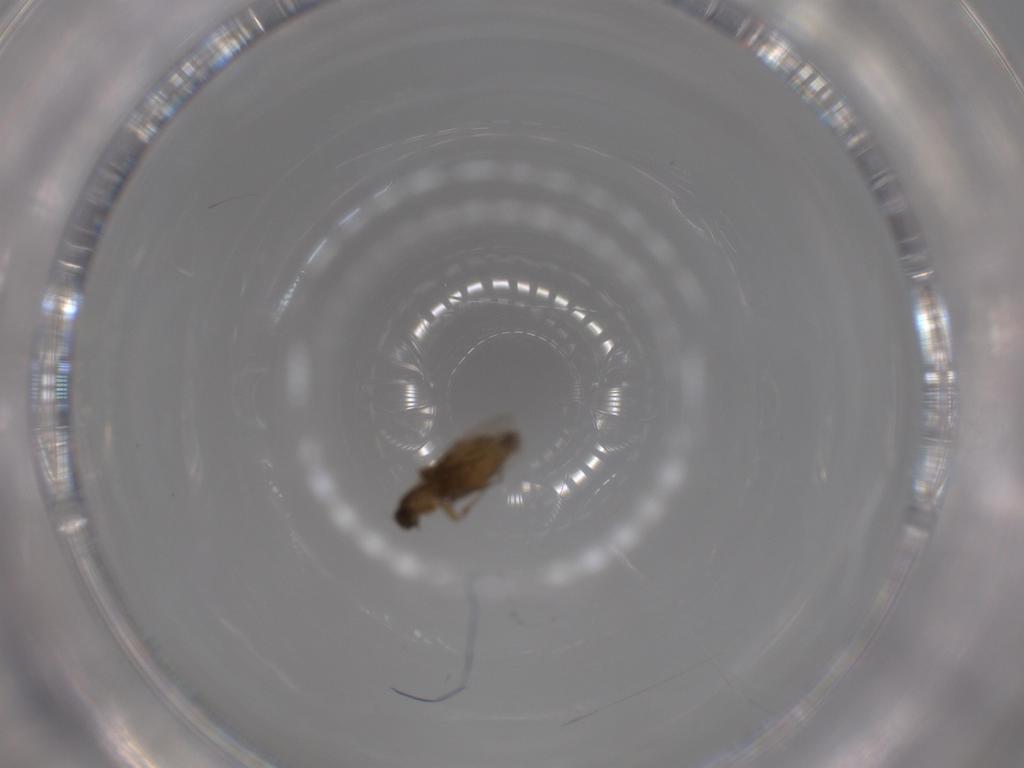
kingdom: Animalia
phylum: Arthropoda
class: Insecta
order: Diptera
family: Phoridae
